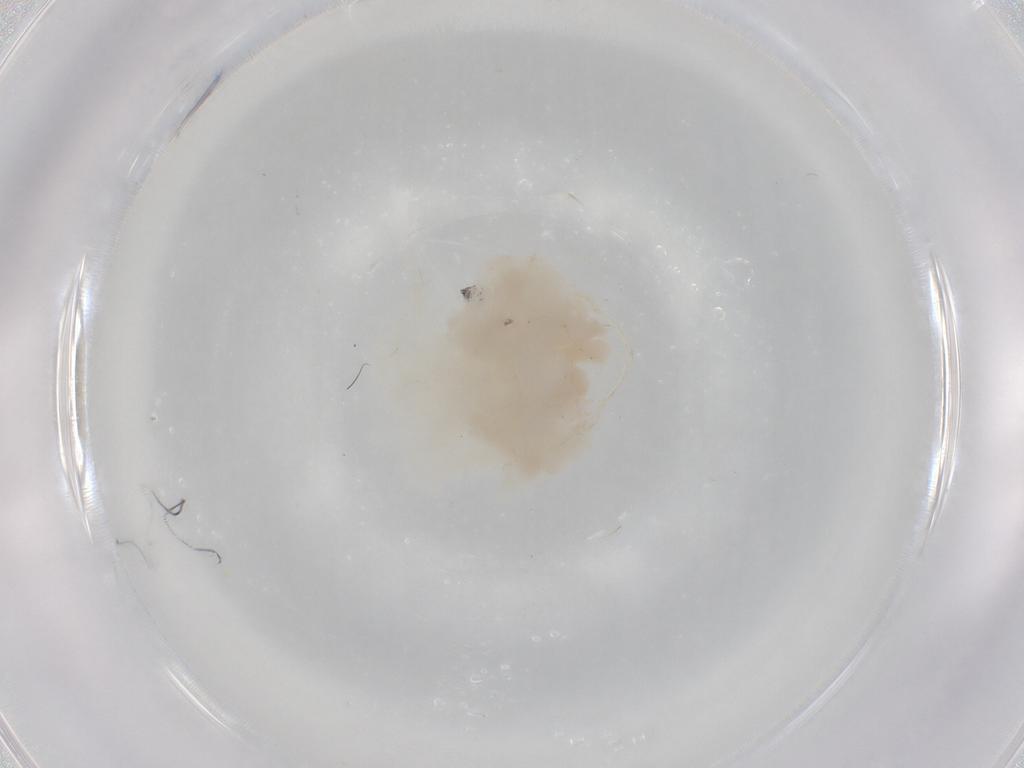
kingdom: Animalia
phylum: Arthropoda
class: Insecta
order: Hemiptera
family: Cicadellidae
